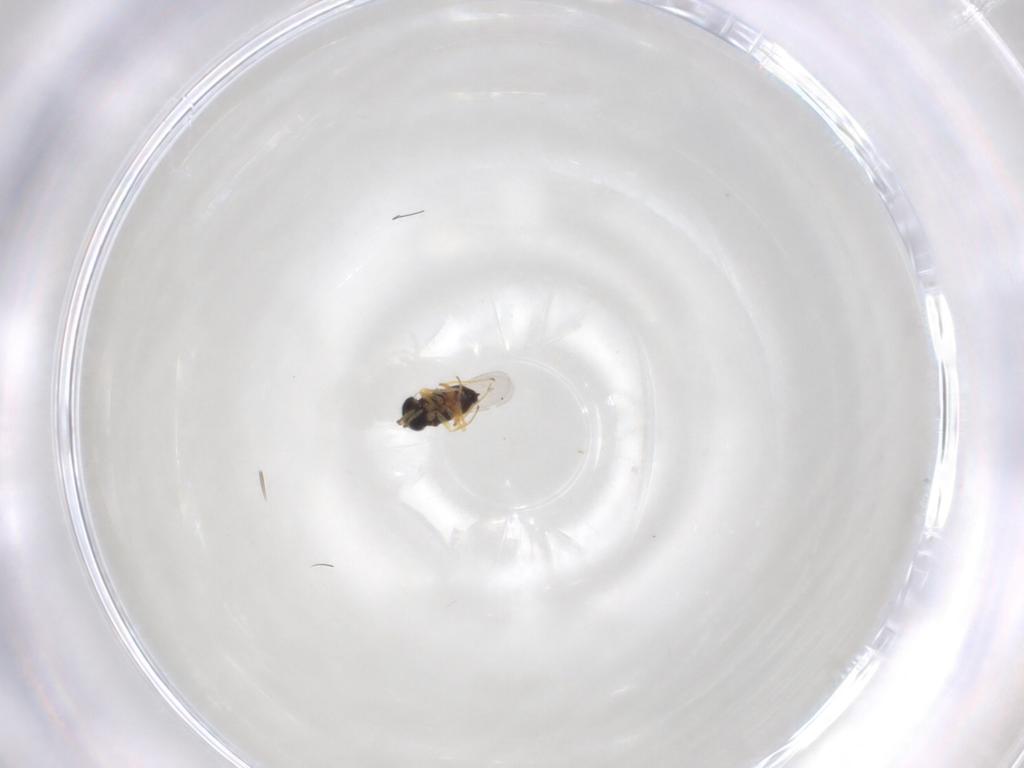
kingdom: Animalia
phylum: Arthropoda
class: Insecta
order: Hymenoptera
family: Encyrtidae
